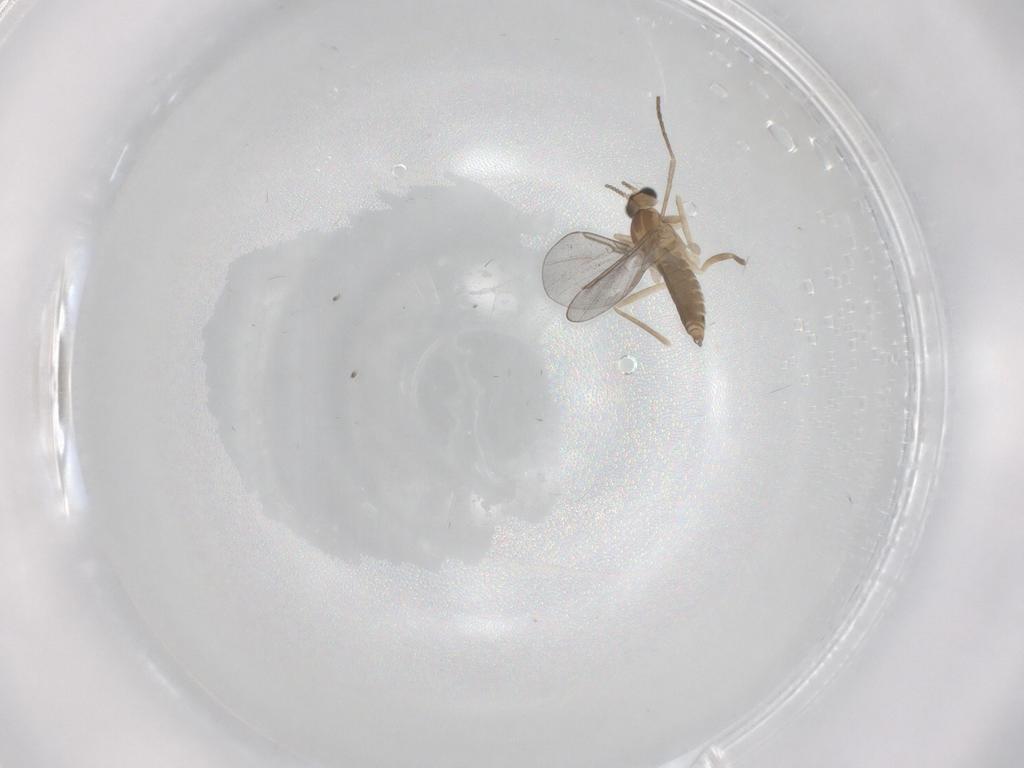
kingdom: Animalia
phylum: Arthropoda
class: Insecta
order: Diptera
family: Cecidomyiidae
